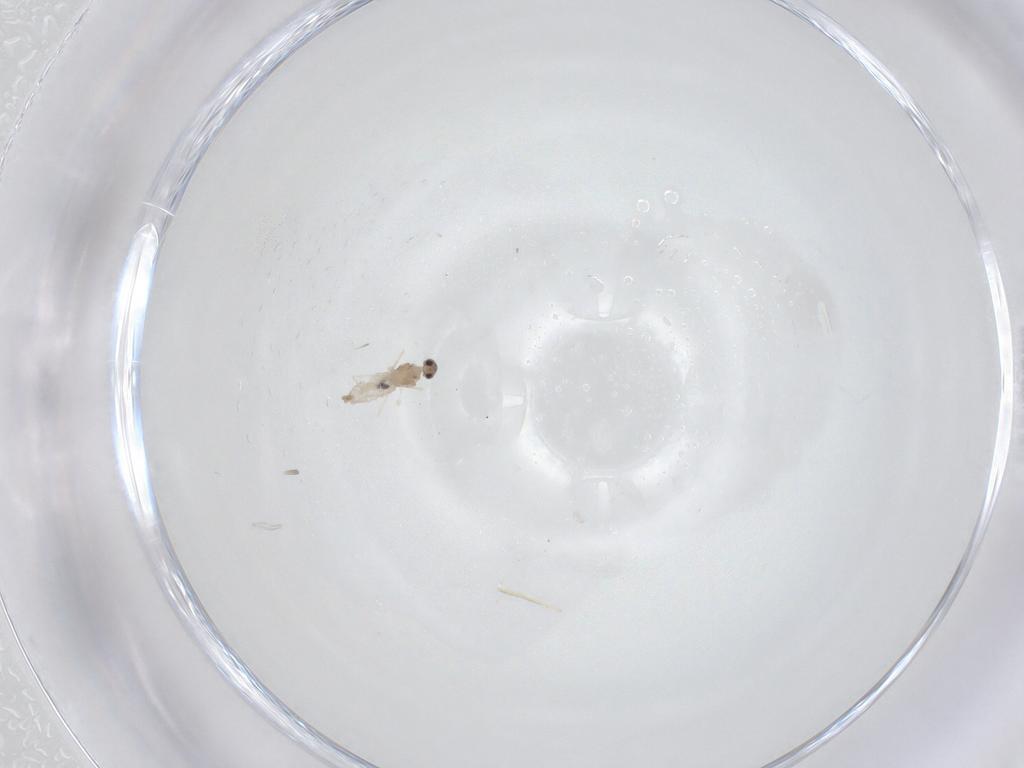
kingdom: Animalia
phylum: Arthropoda
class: Insecta
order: Diptera
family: Cecidomyiidae
